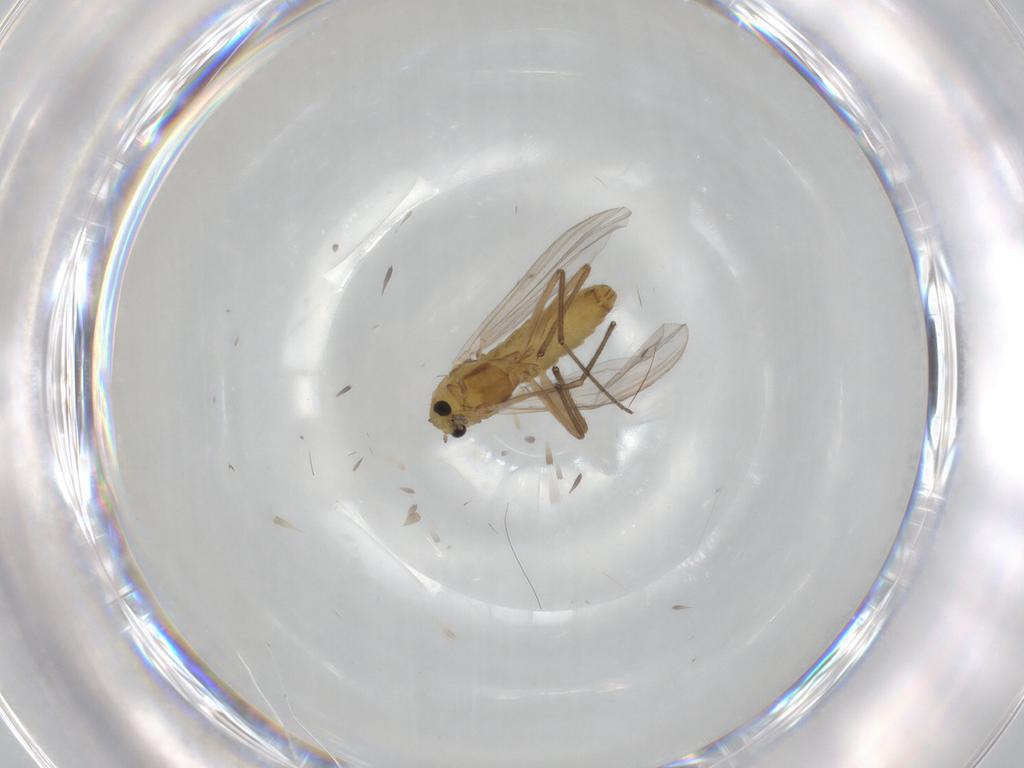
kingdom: Animalia
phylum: Arthropoda
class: Insecta
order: Diptera
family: Chironomidae
